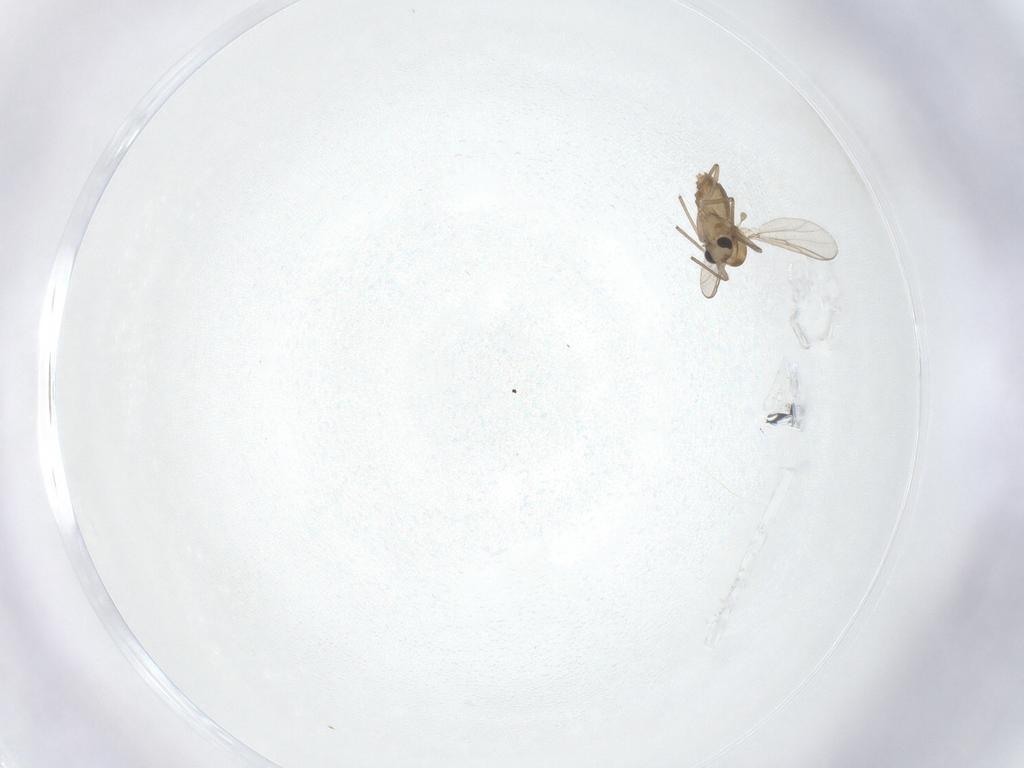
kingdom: Animalia
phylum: Arthropoda
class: Insecta
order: Diptera
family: Chironomidae
